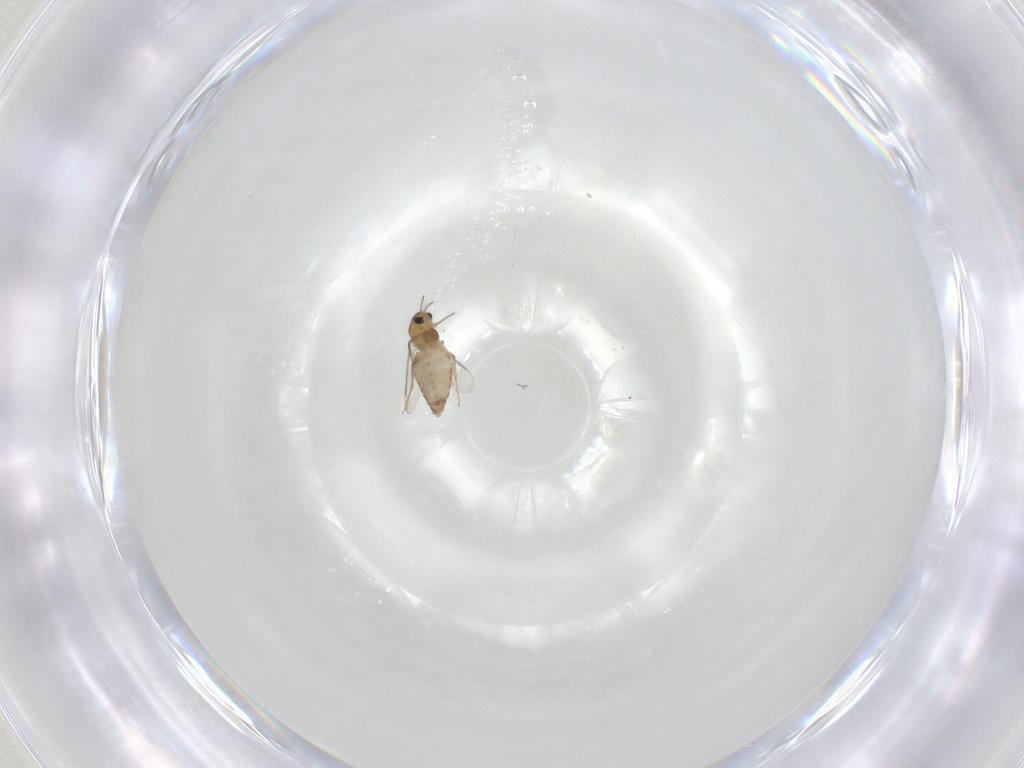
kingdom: Animalia
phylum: Arthropoda
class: Insecta
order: Diptera
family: Chironomidae
